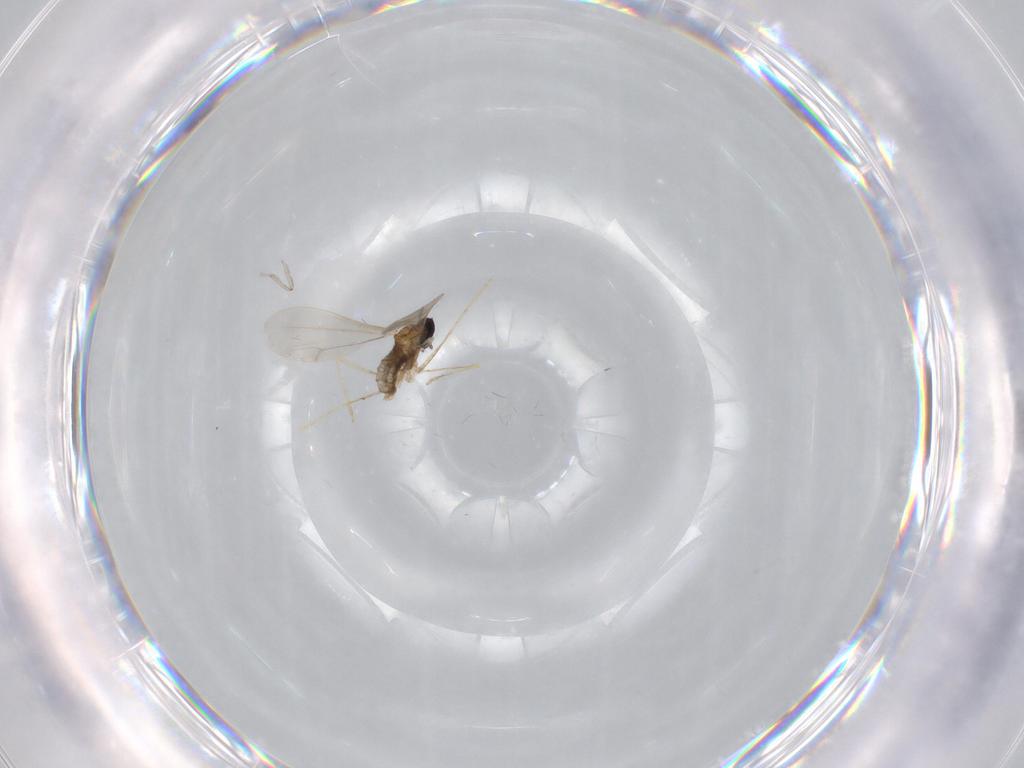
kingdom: Animalia
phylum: Arthropoda
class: Insecta
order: Diptera
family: Cecidomyiidae
